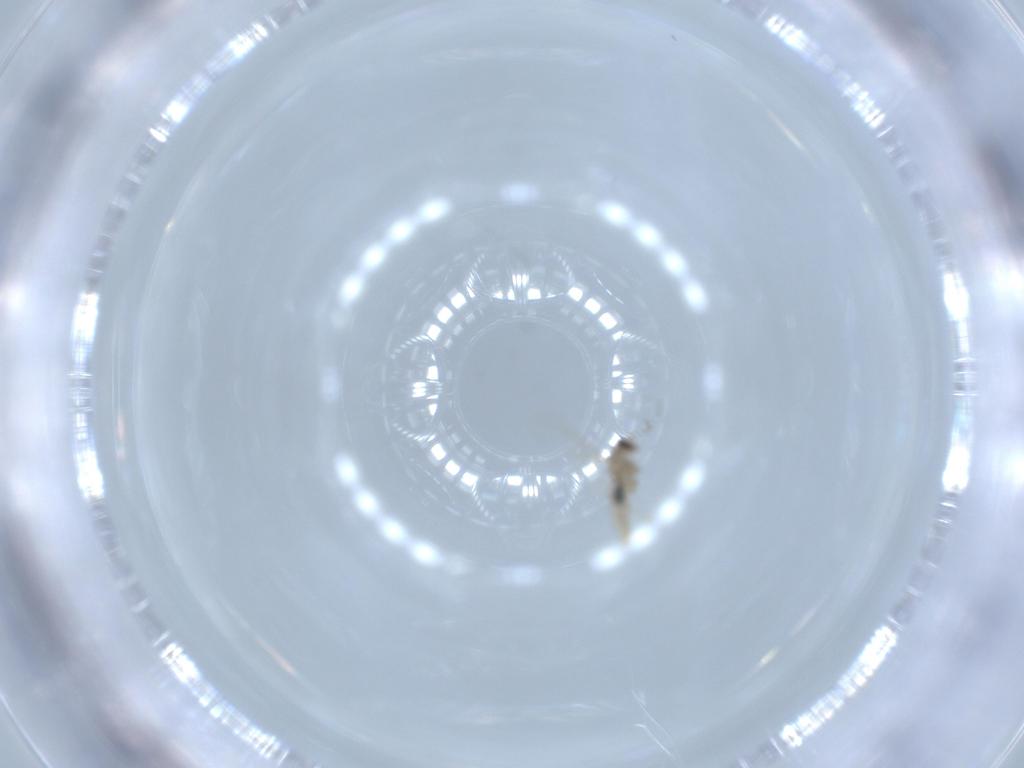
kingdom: Animalia
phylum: Arthropoda
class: Insecta
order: Diptera
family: Cecidomyiidae
